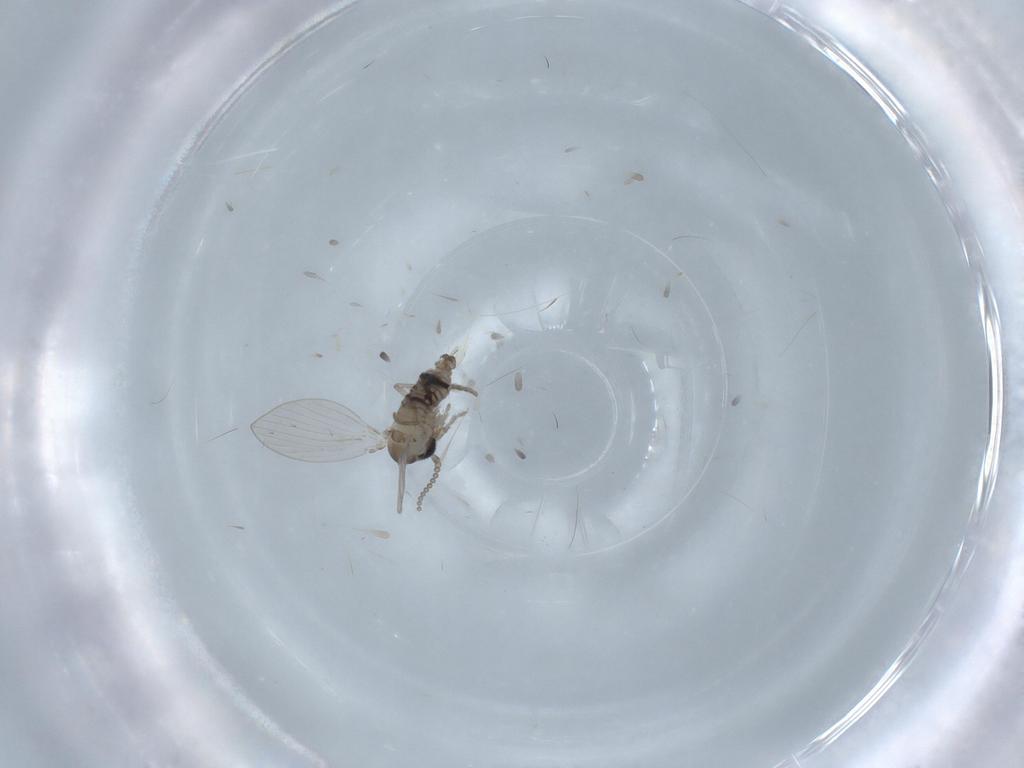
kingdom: Animalia
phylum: Arthropoda
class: Insecta
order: Diptera
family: Psychodidae
